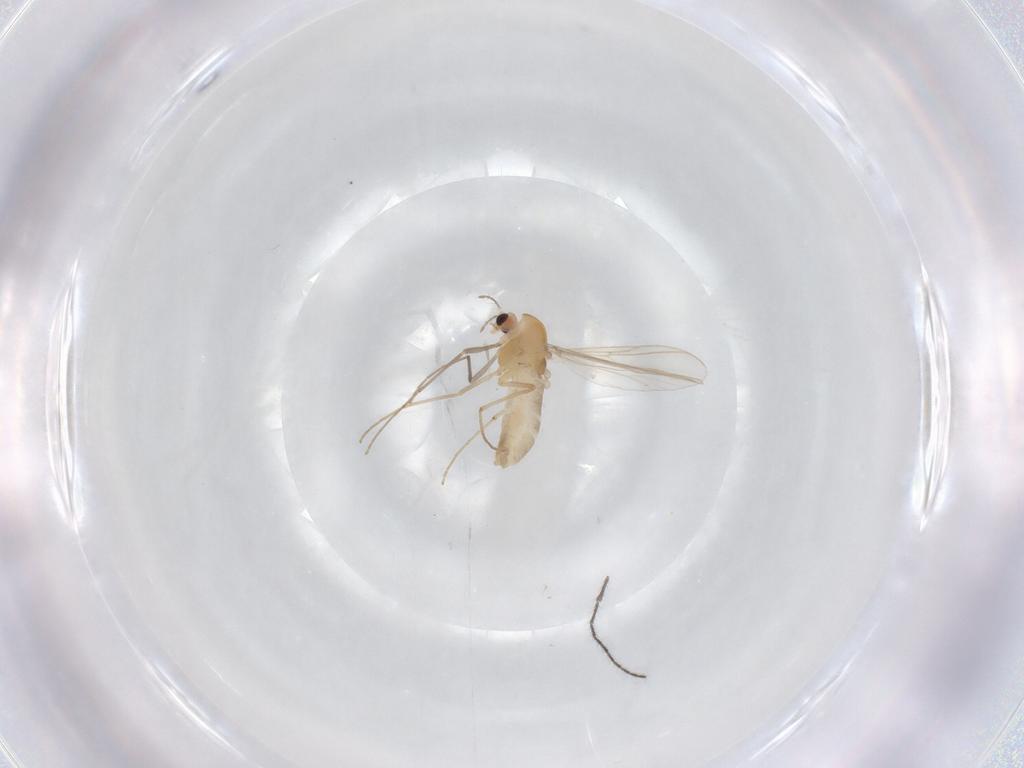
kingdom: Animalia
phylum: Arthropoda
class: Insecta
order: Diptera
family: Chironomidae
